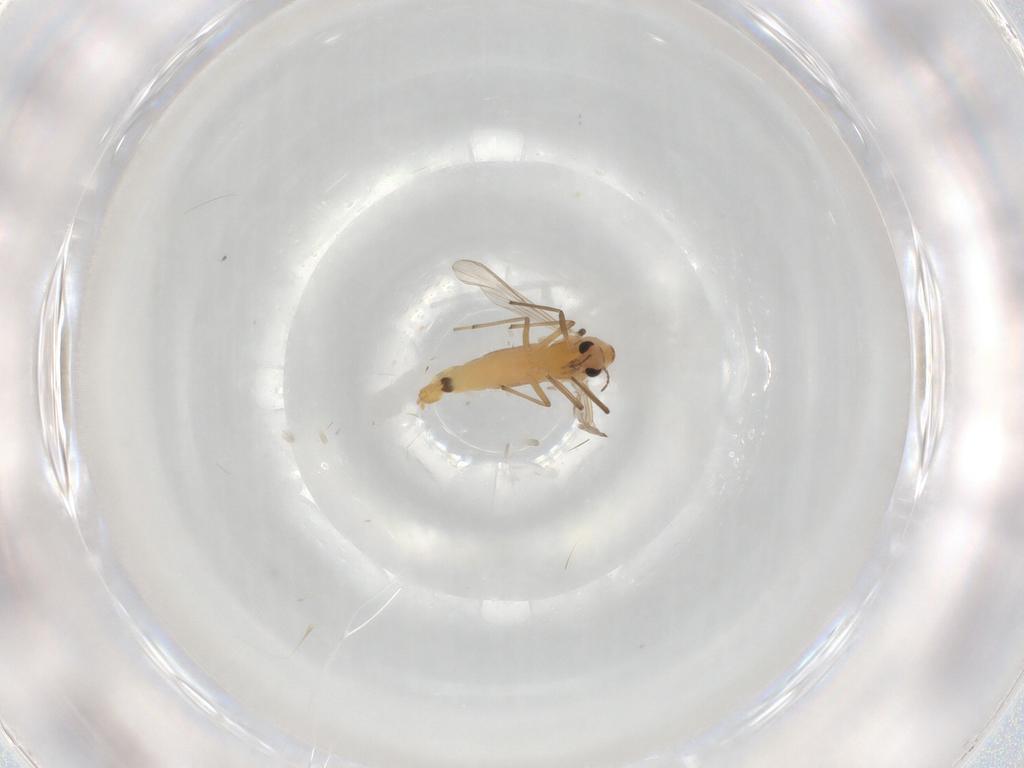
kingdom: Animalia
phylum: Arthropoda
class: Insecta
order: Diptera
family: Chironomidae
